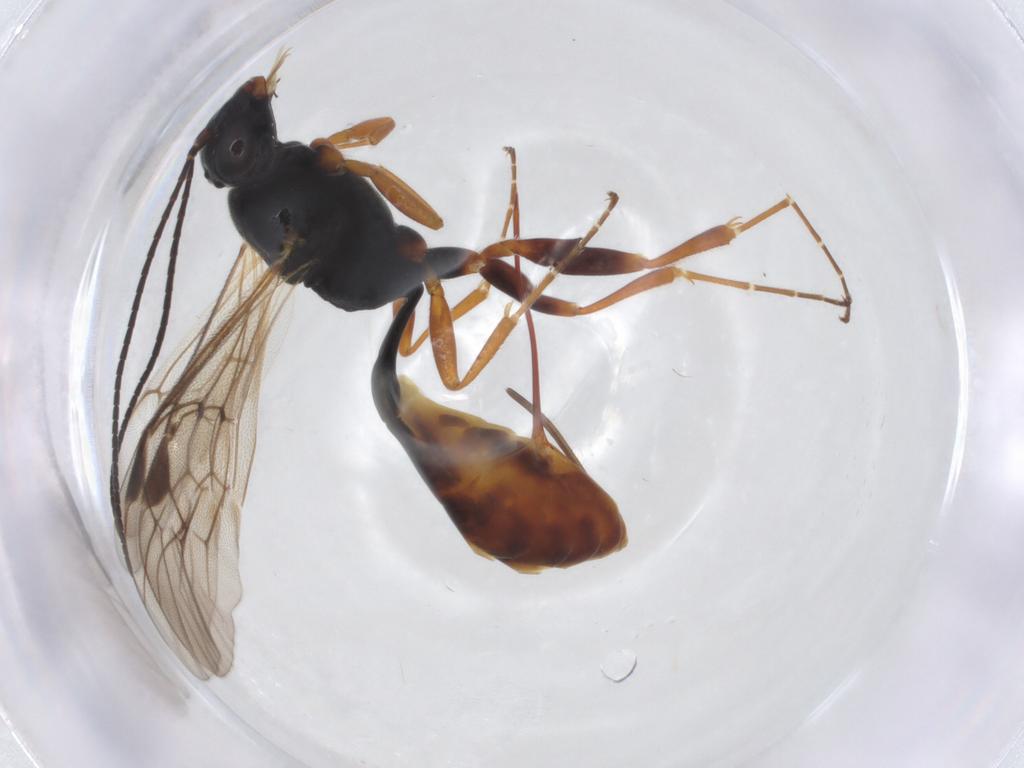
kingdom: Animalia
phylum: Arthropoda
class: Insecta
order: Hymenoptera
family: Ichneumonidae
